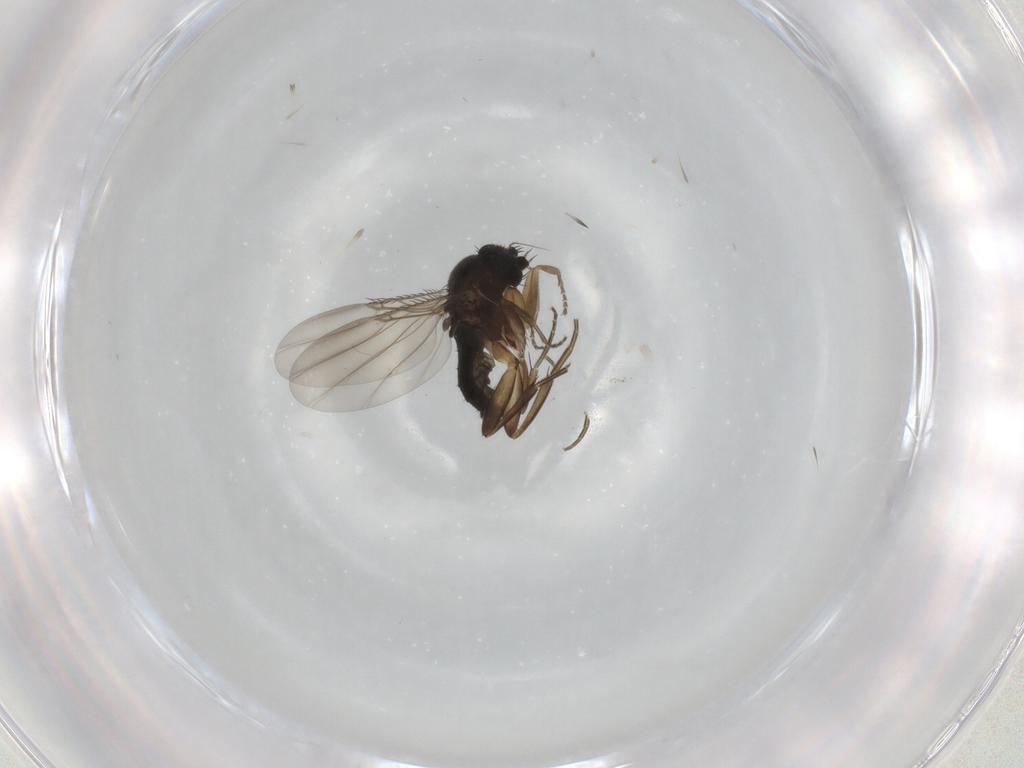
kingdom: Animalia
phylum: Arthropoda
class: Insecta
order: Diptera
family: Phoridae
